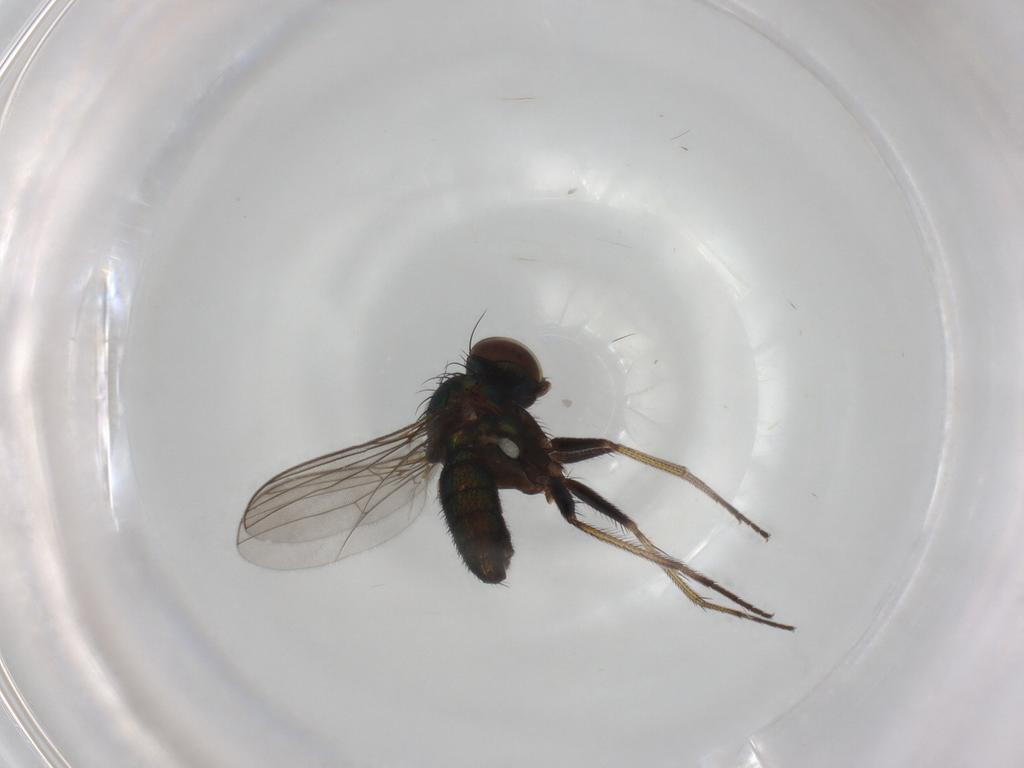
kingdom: Animalia
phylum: Arthropoda
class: Insecta
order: Diptera
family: Dolichopodidae
